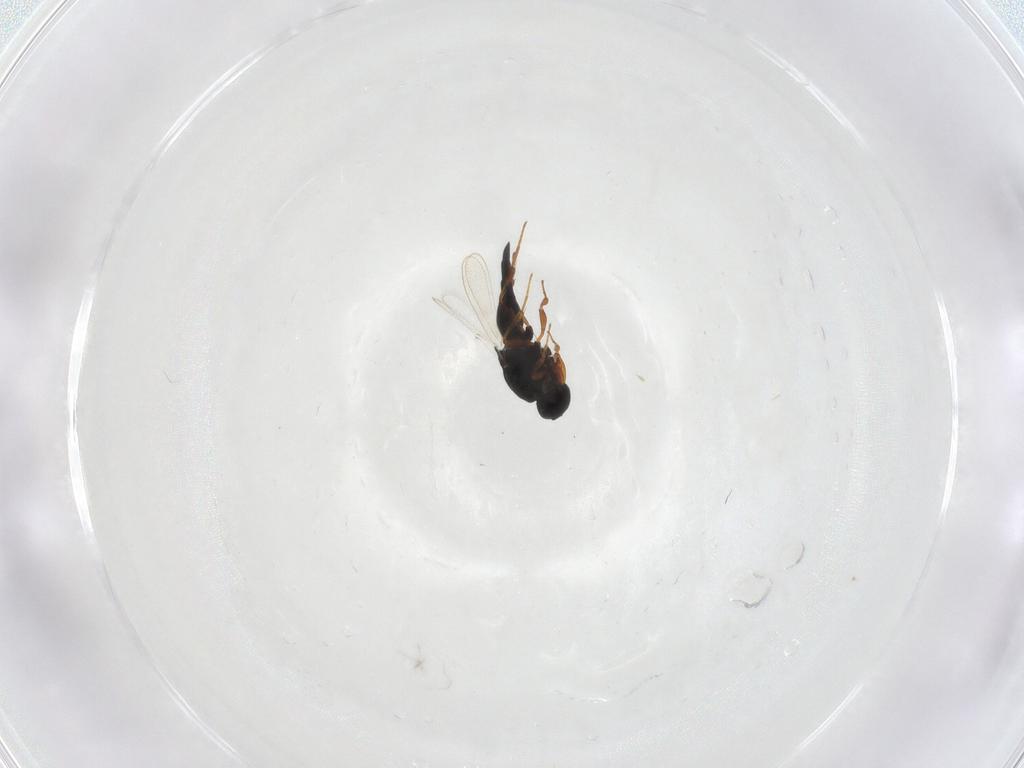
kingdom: Animalia
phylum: Arthropoda
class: Insecta
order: Hymenoptera
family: Platygastridae
